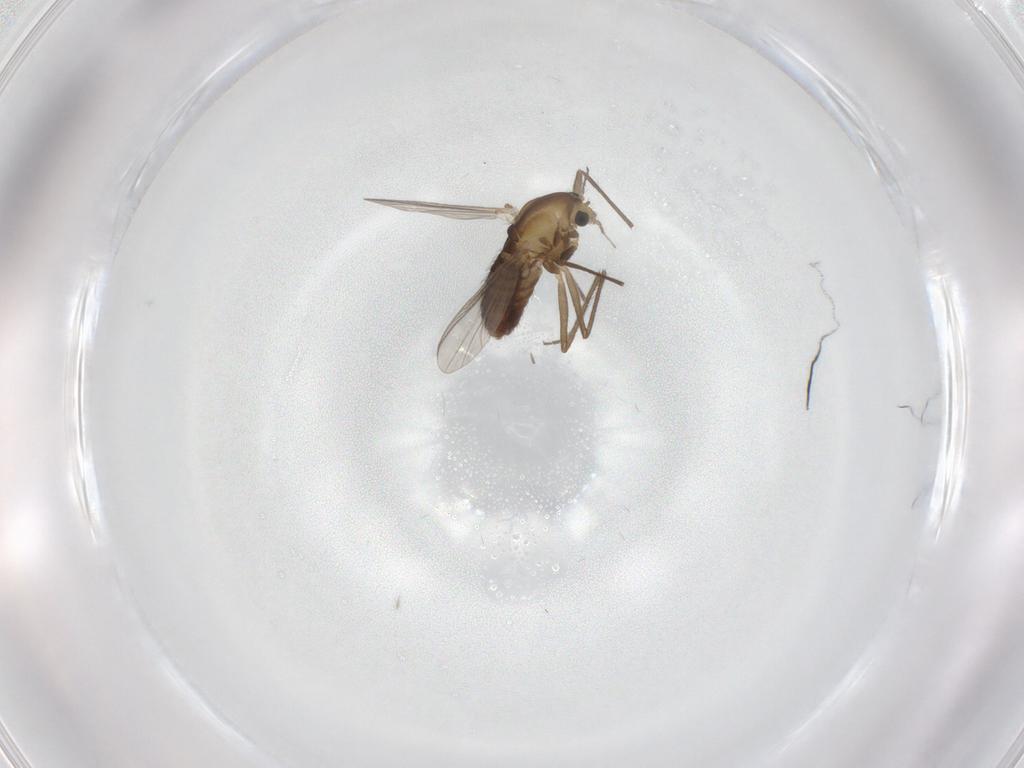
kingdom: Animalia
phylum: Arthropoda
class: Insecta
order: Diptera
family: Chironomidae
